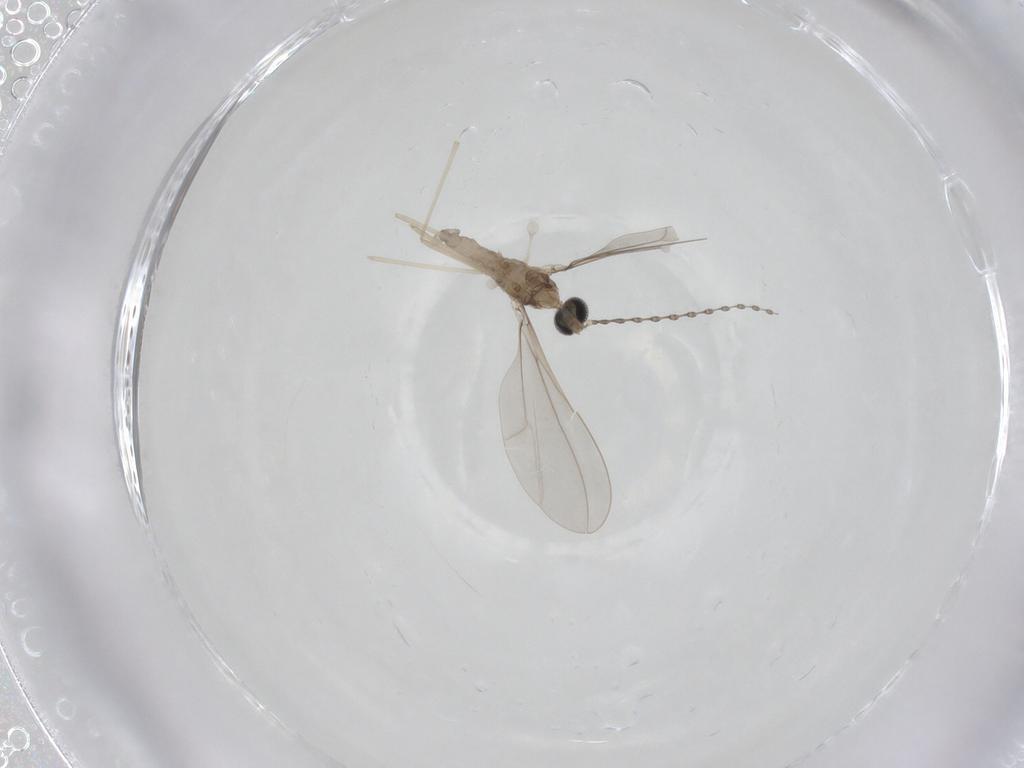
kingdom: Animalia
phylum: Arthropoda
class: Insecta
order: Diptera
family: Cecidomyiidae
